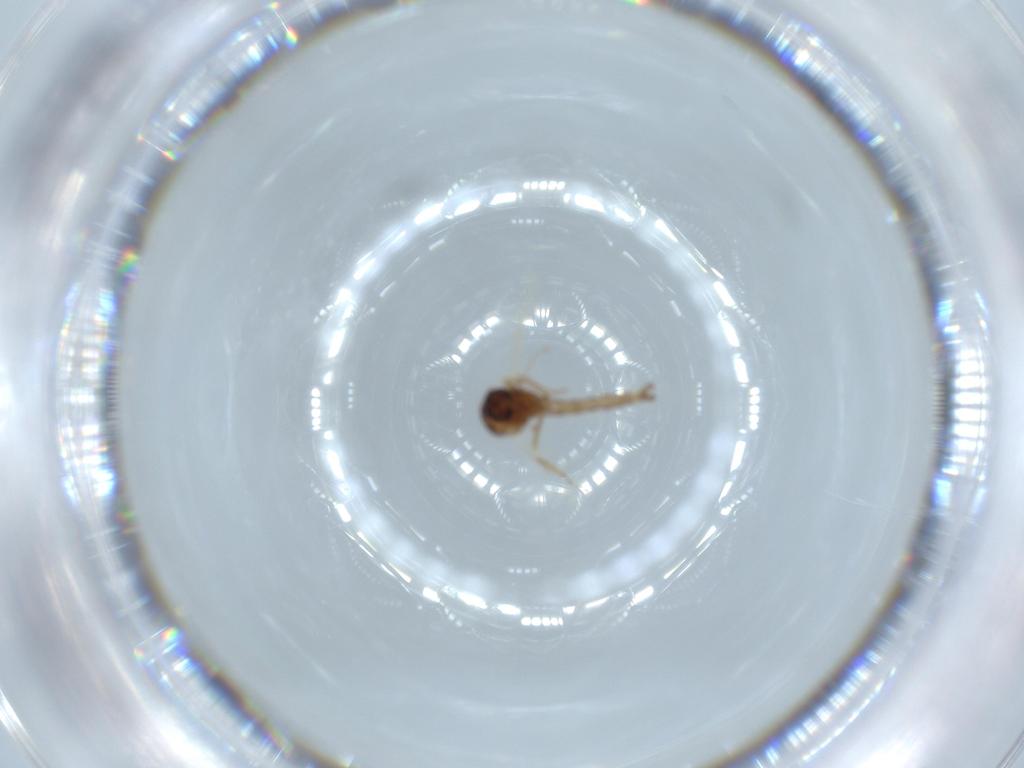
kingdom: Animalia
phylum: Arthropoda
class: Insecta
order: Diptera
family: Ceratopogonidae
